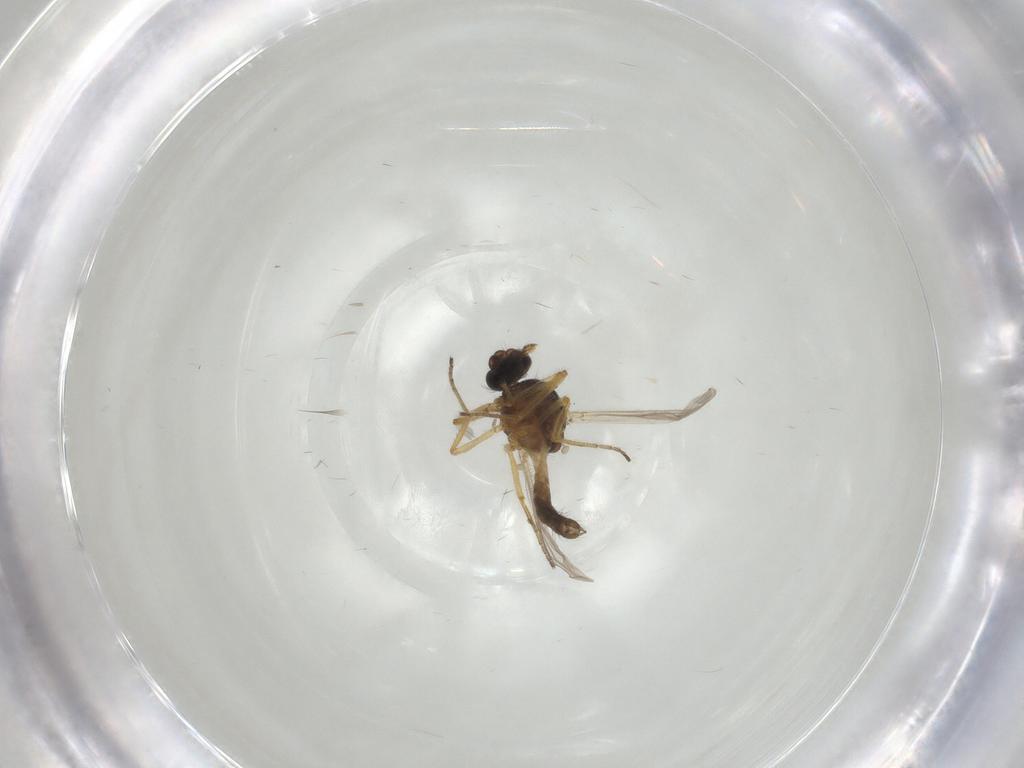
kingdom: Animalia
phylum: Arthropoda
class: Insecta
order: Diptera
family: Ceratopogonidae
